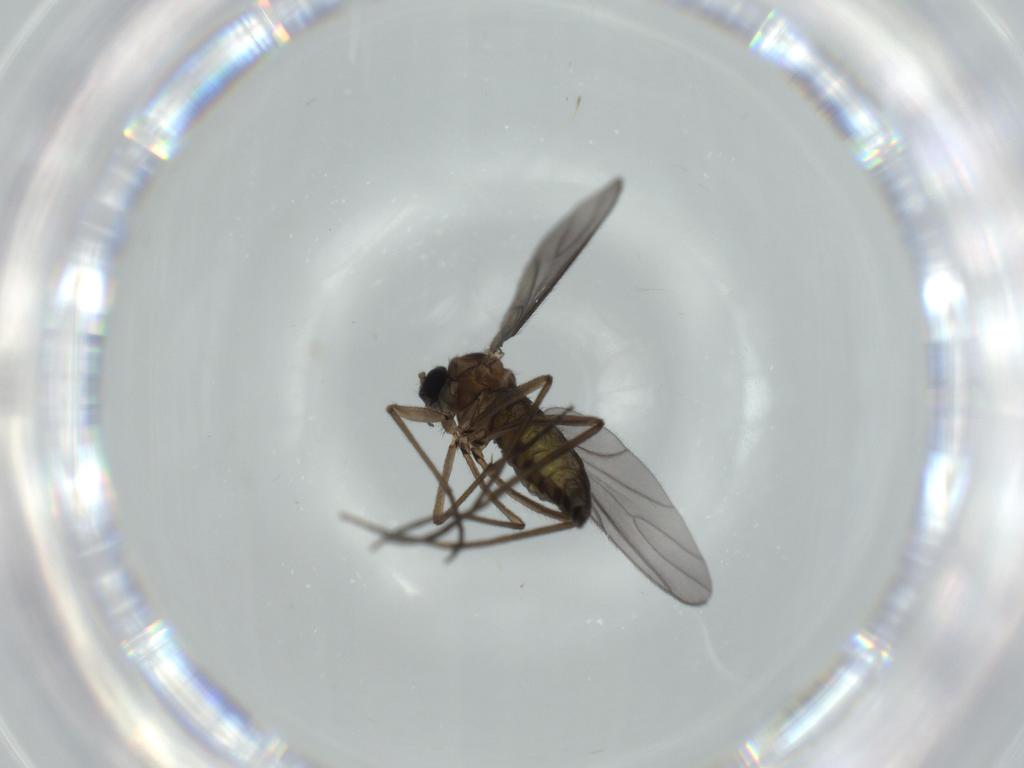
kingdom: Animalia
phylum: Arthropoda
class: Insecta
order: Diptera
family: Sciaridae
